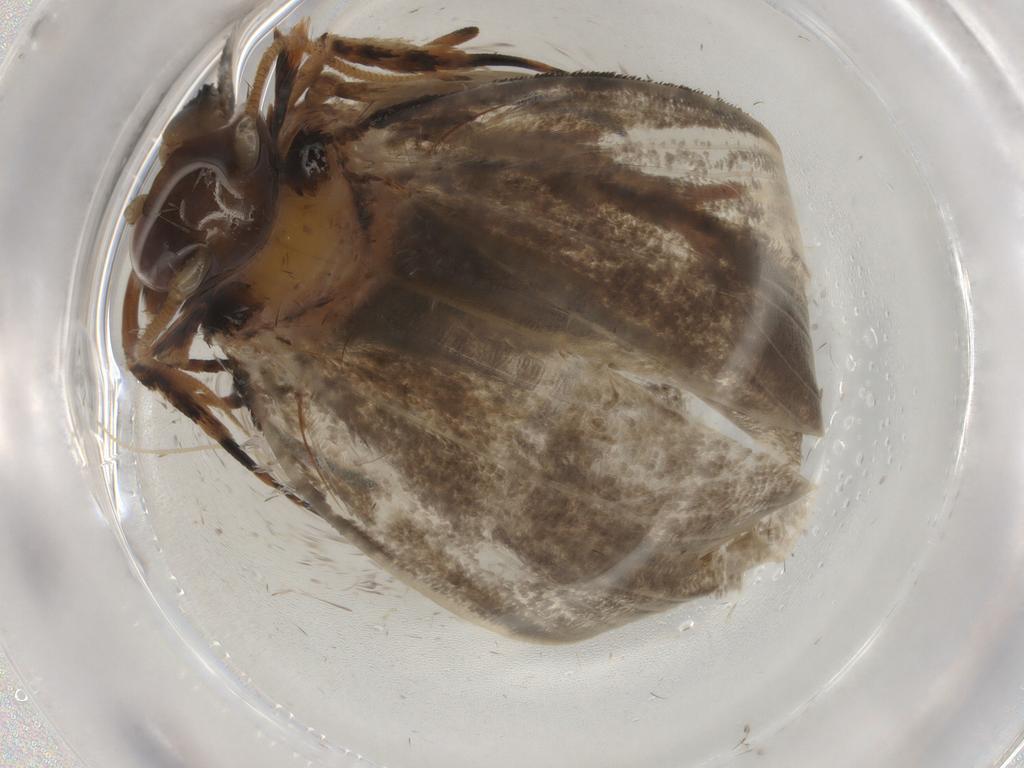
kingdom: Animalia
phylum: Arthropoda
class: Insecta
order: Lepidoptera
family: Tineidae
